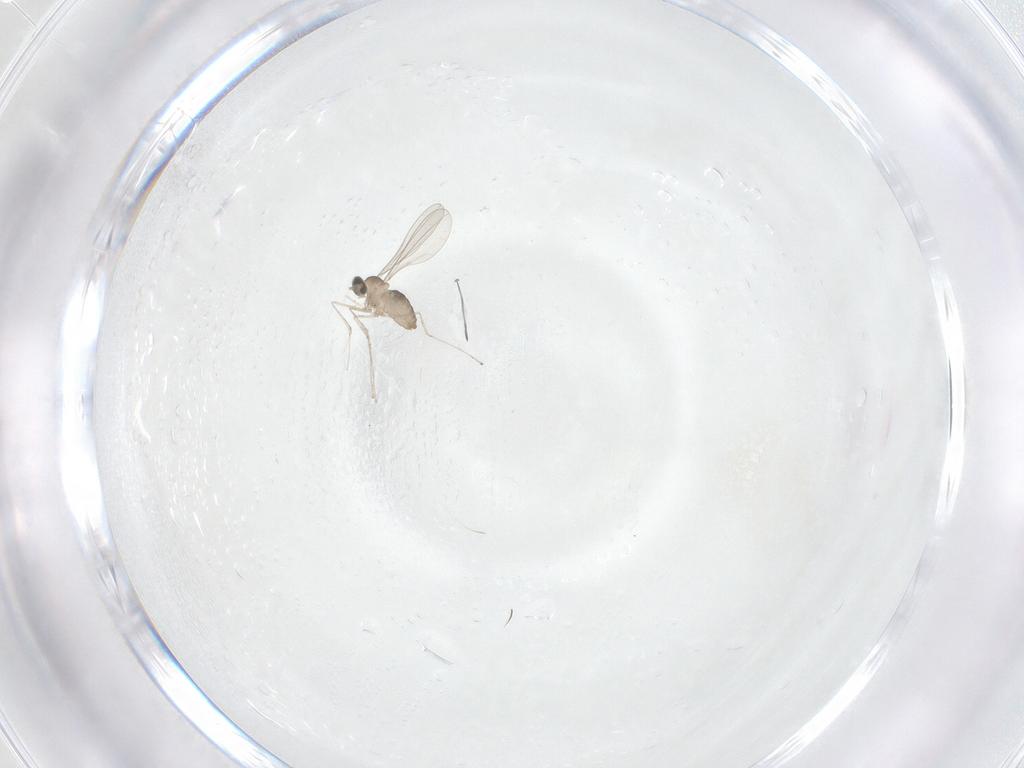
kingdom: Animalia
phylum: Arthropoda
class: Insecta
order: Diptera
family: Cecidomyiidae
